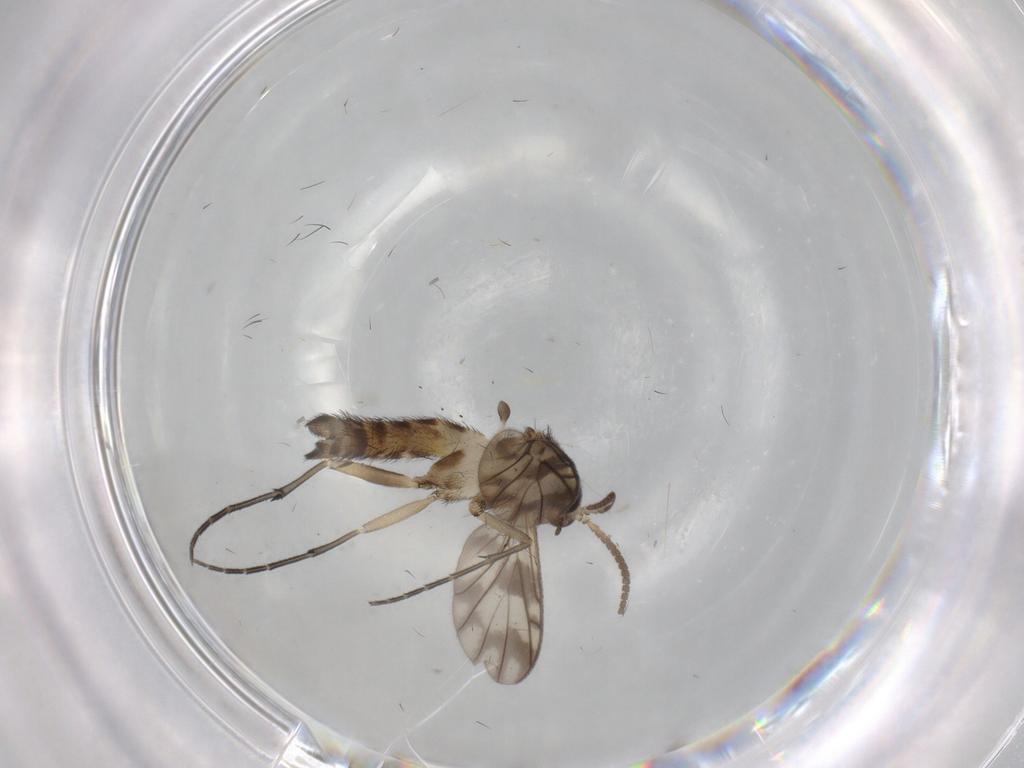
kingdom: Animalia
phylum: Arthropoda
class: Insecta
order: Diptera
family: Keroplatidae
